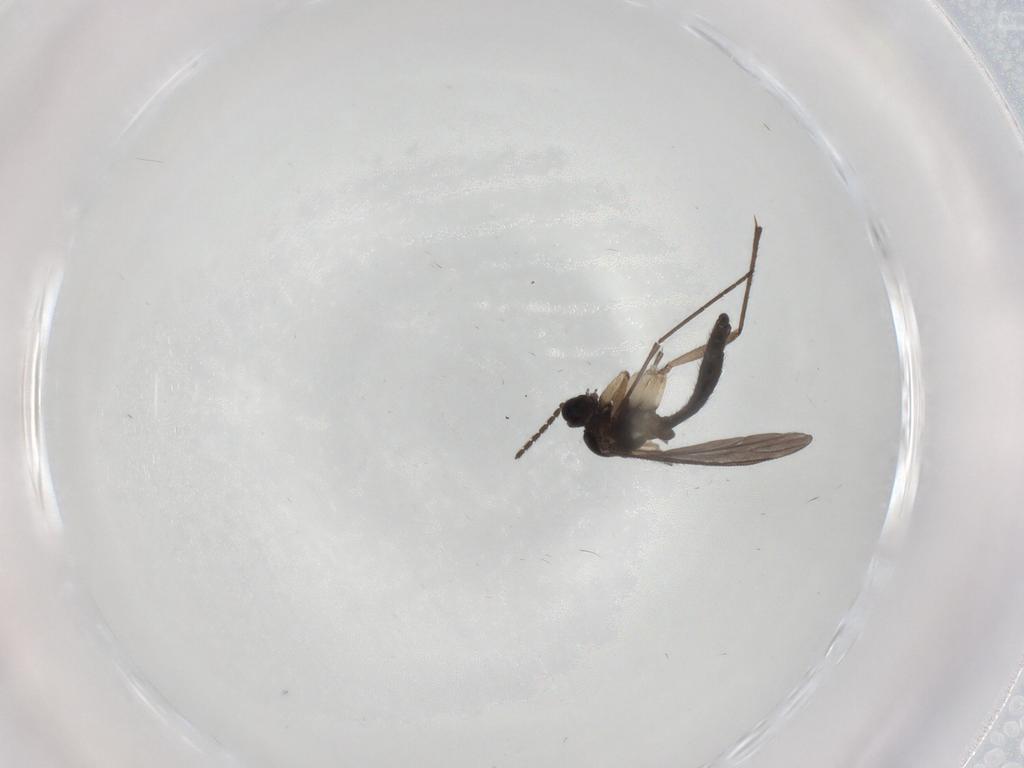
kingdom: Animalia
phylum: Arthropoda
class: Insecta
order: Diptera
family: Sciaridae
